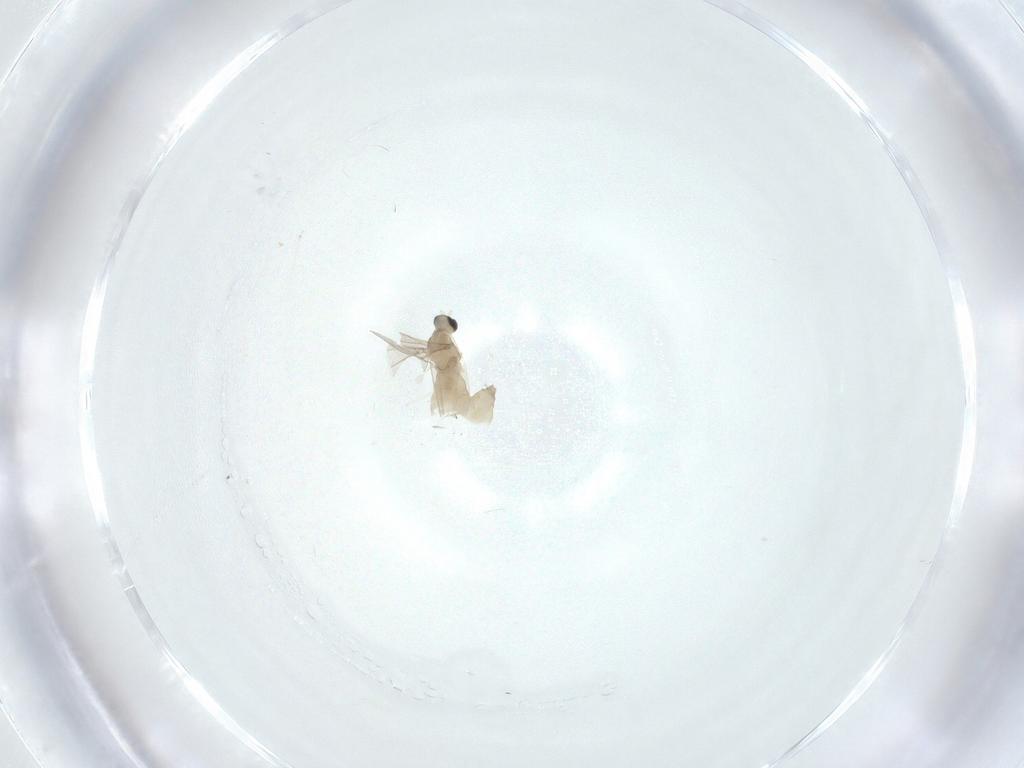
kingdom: Animalia
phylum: Arthropoda
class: Insecta
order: Diptera
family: Cecidomyiidae
